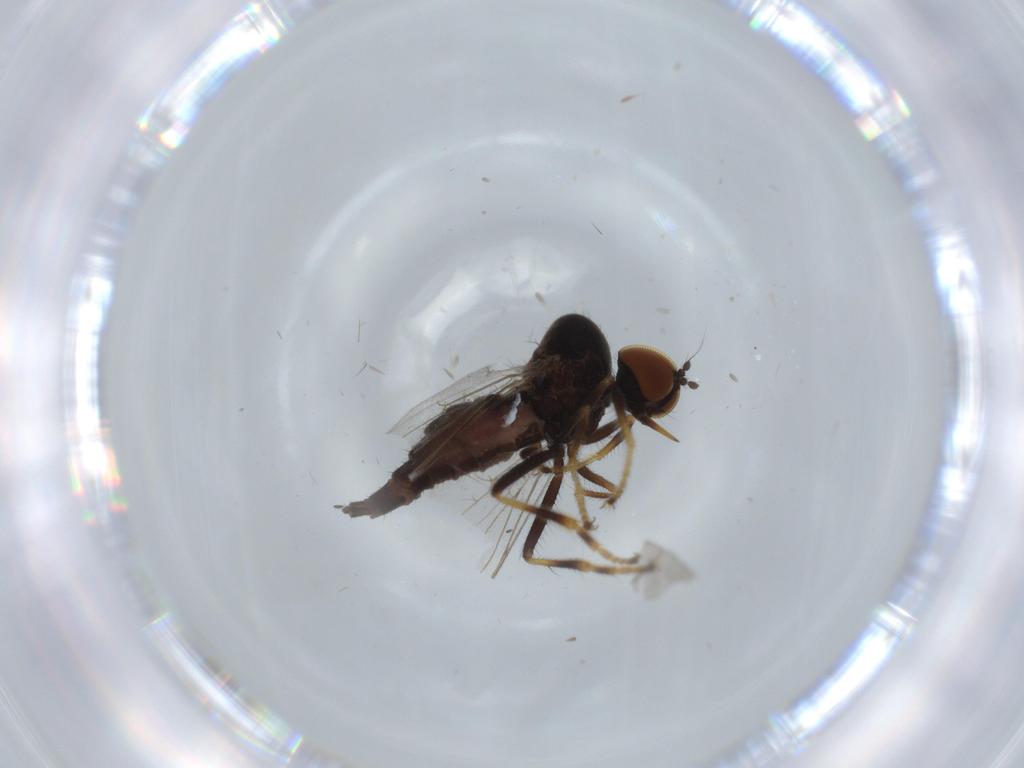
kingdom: Animalia
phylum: Arthropoda
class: Insecta
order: Diptera
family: Hybotidae
